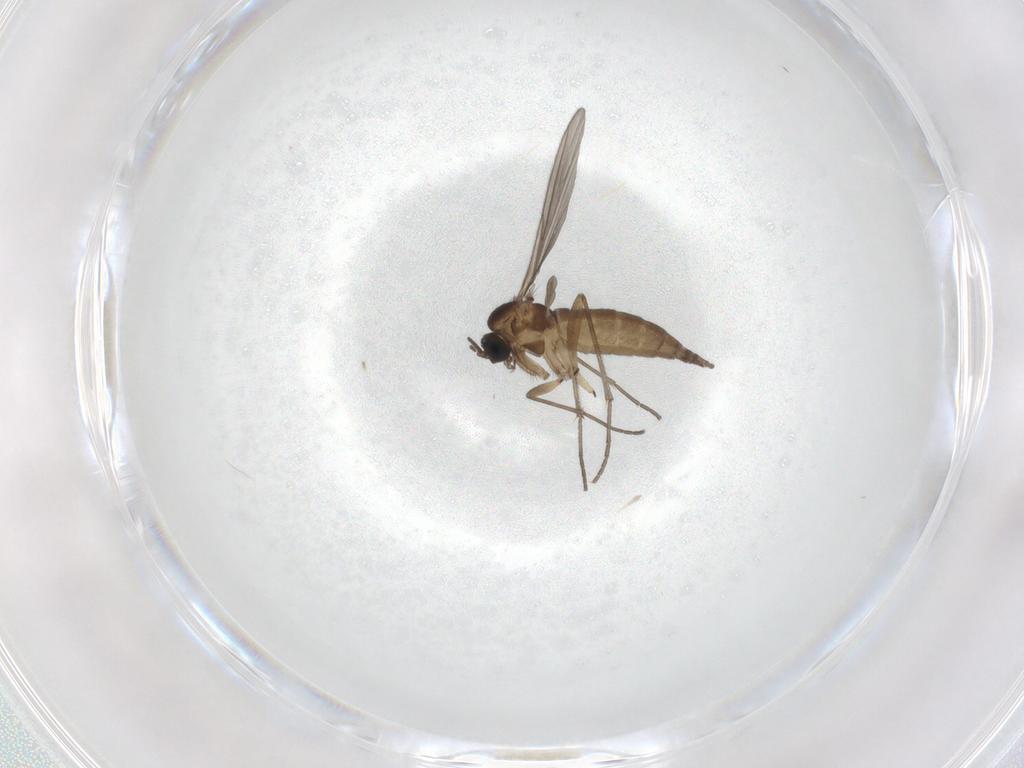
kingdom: Animalia
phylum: Arthropoda
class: Insecta
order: Diptera
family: Sciaridae
